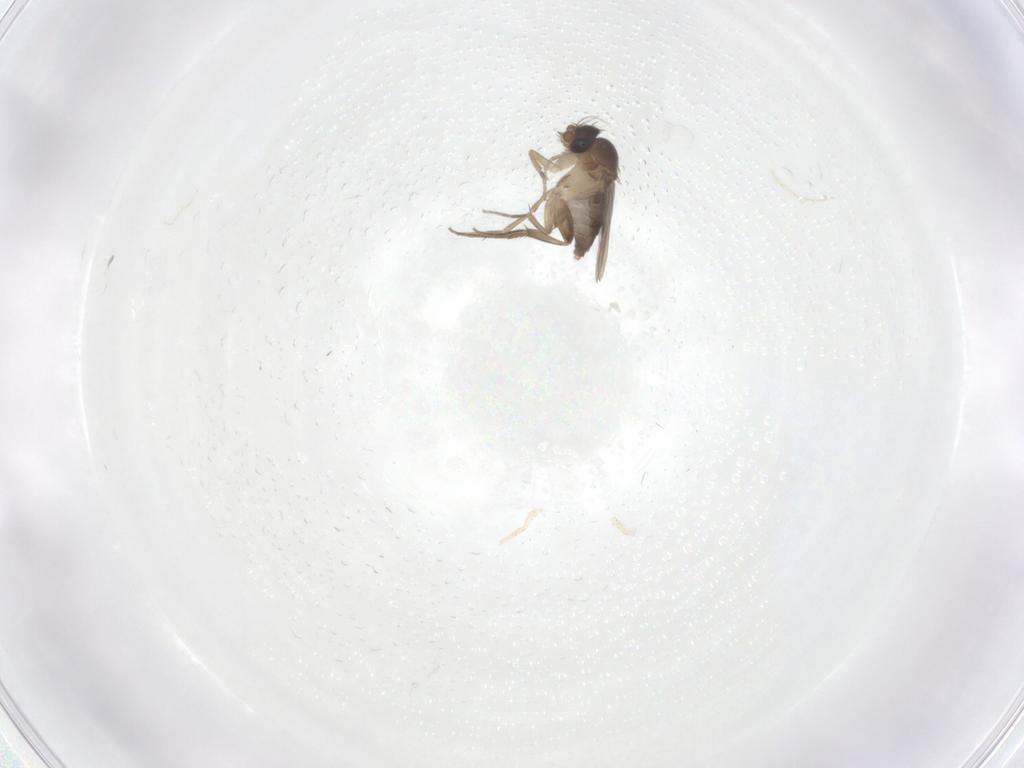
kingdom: Animalia
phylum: Arthropoda
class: Insecta
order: Diptera
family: Phoridae
